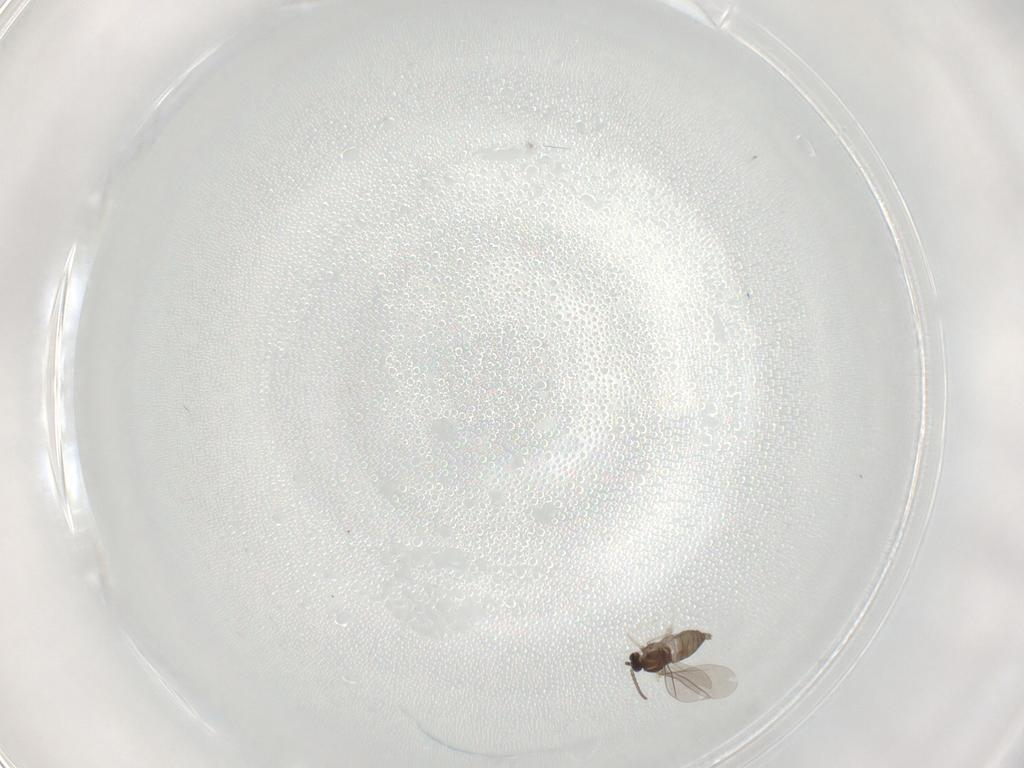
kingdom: Animalia
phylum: Arthropoda
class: Insecta
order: Diptera
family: Cecidomyiidae
